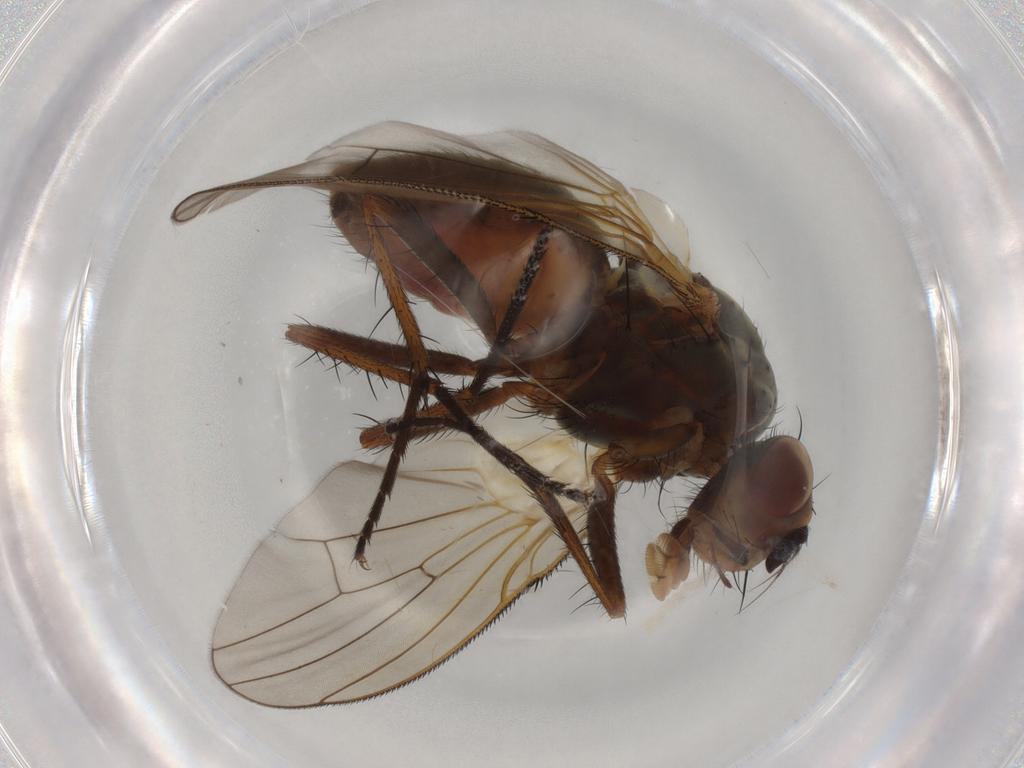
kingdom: Animalia
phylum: Arthropoda
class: Insecta
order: Diptera
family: Anthomyiidae
